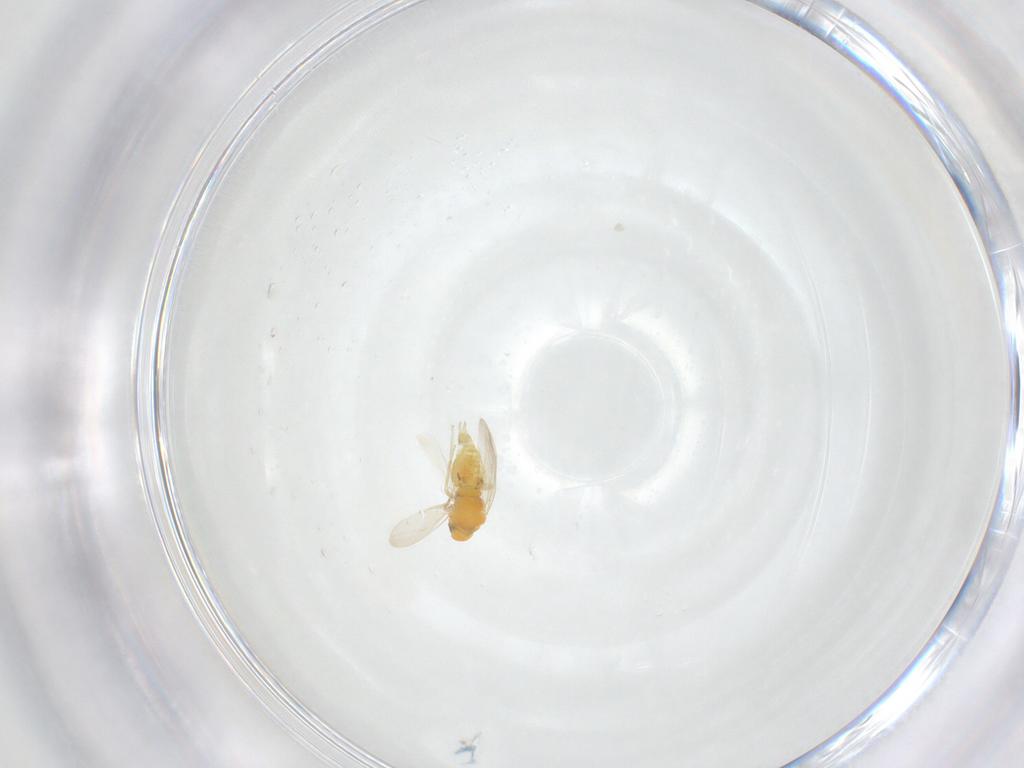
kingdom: Animalia
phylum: Arthropoda
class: Insecta
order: Hemiptera
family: Aleyrodidae
